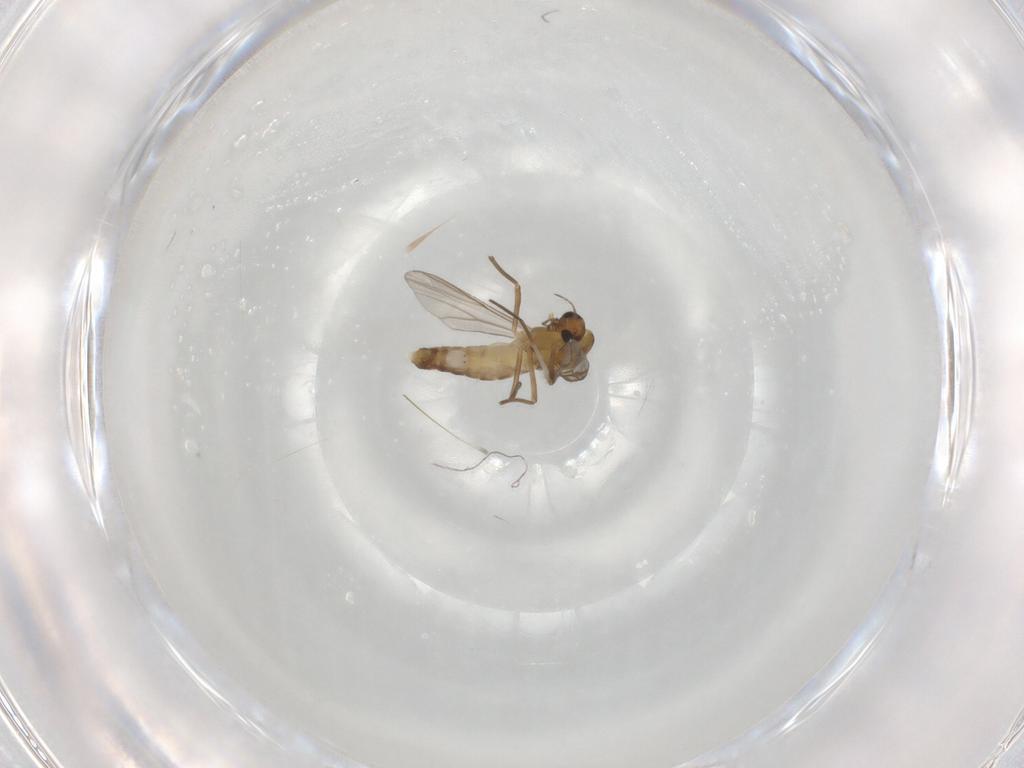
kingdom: Animalia
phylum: Arthropoda
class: Insecta
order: Diptera
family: Chironomidae
